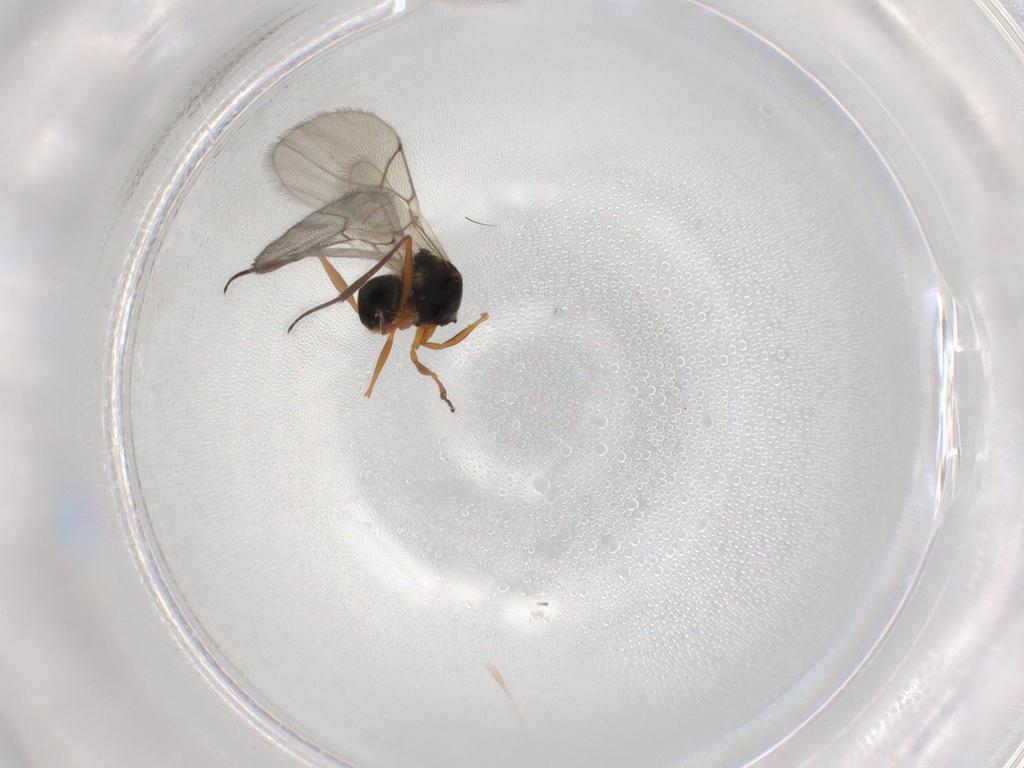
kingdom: Animalia
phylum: Arthropoda
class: Insecta
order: Hymenoptera
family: Figitidae
